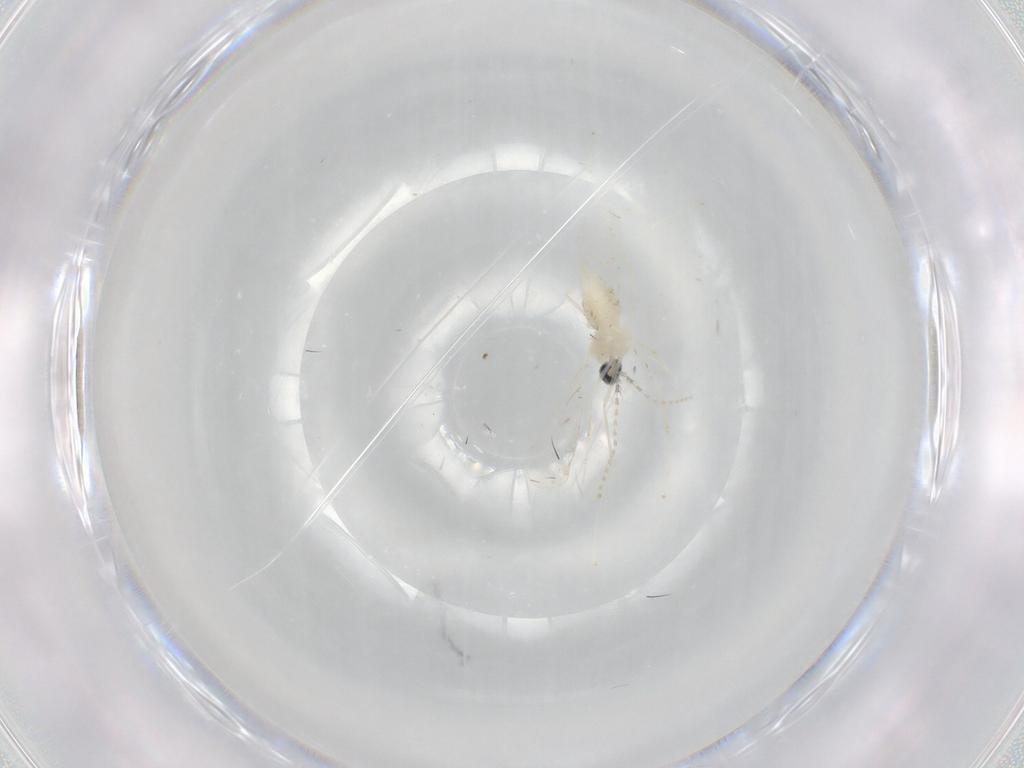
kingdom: Animalia
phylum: Arthropoda
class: Insecta
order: Diptera
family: Cecidomyiidae
